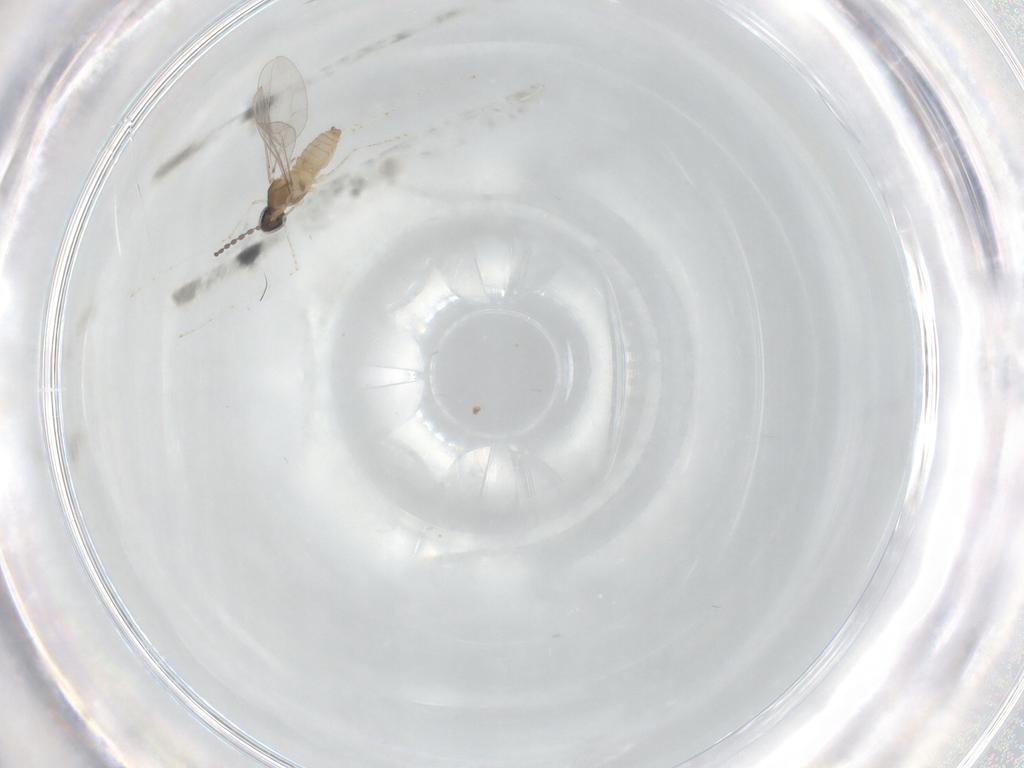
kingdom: Animalia
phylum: Arthropoda
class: Insecta
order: Diptera
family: Cecidomyiidae
